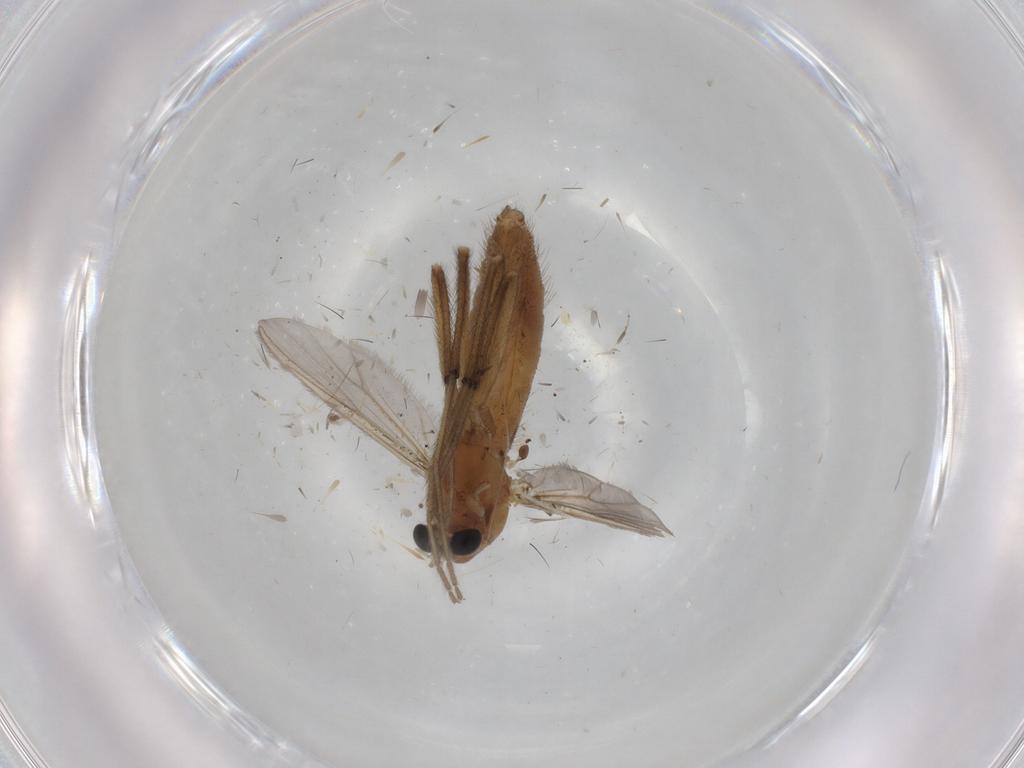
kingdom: Animalia
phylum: Arthropoda
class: Insecta
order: Diptera
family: Chironomidae
